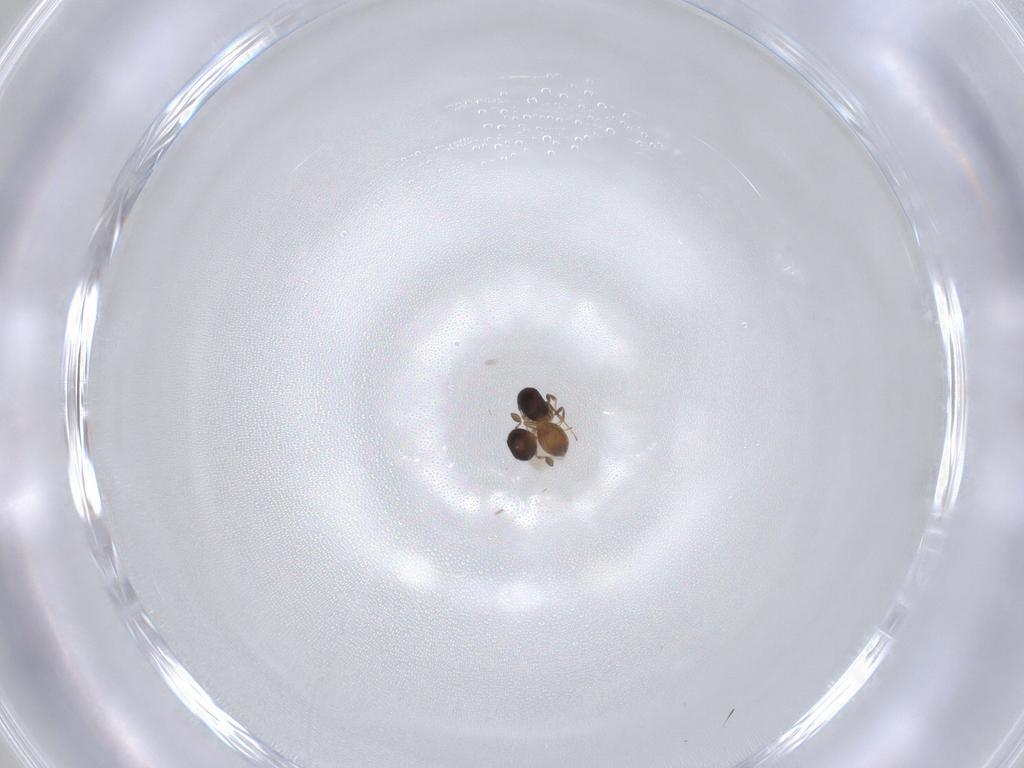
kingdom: Animalia
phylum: Arthropoda
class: Insecta
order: Hymenoptera
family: Scelionidae
